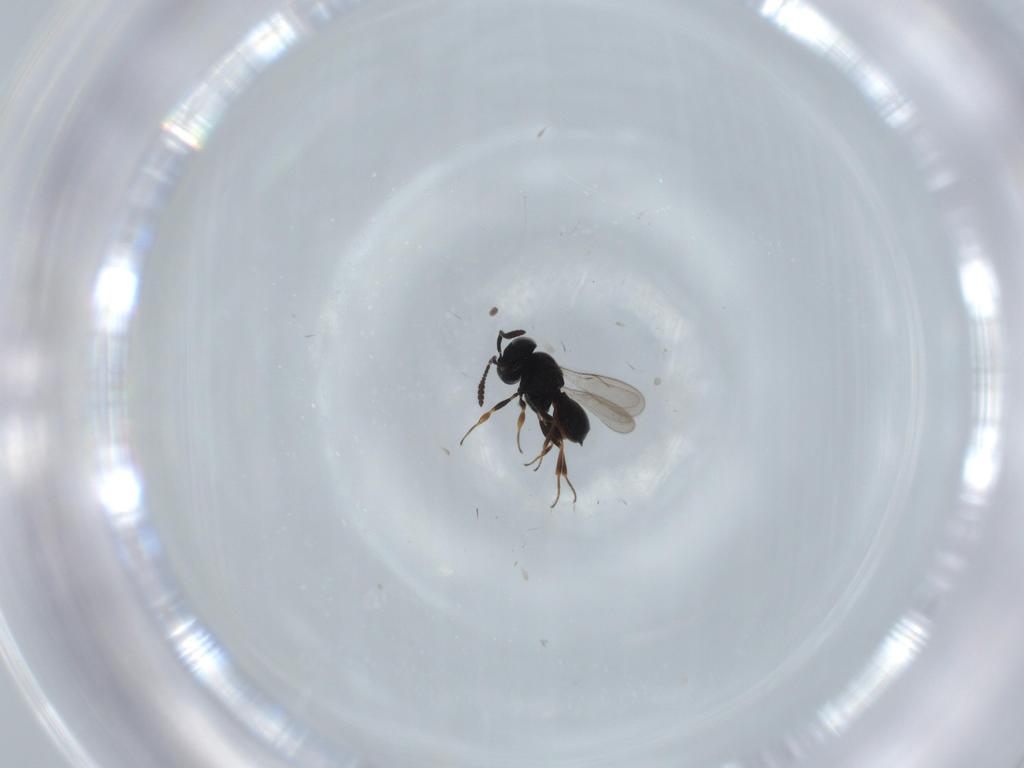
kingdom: Animalia
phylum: Arthropoda
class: Insecta
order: Hymenoptera
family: Scelionidae
